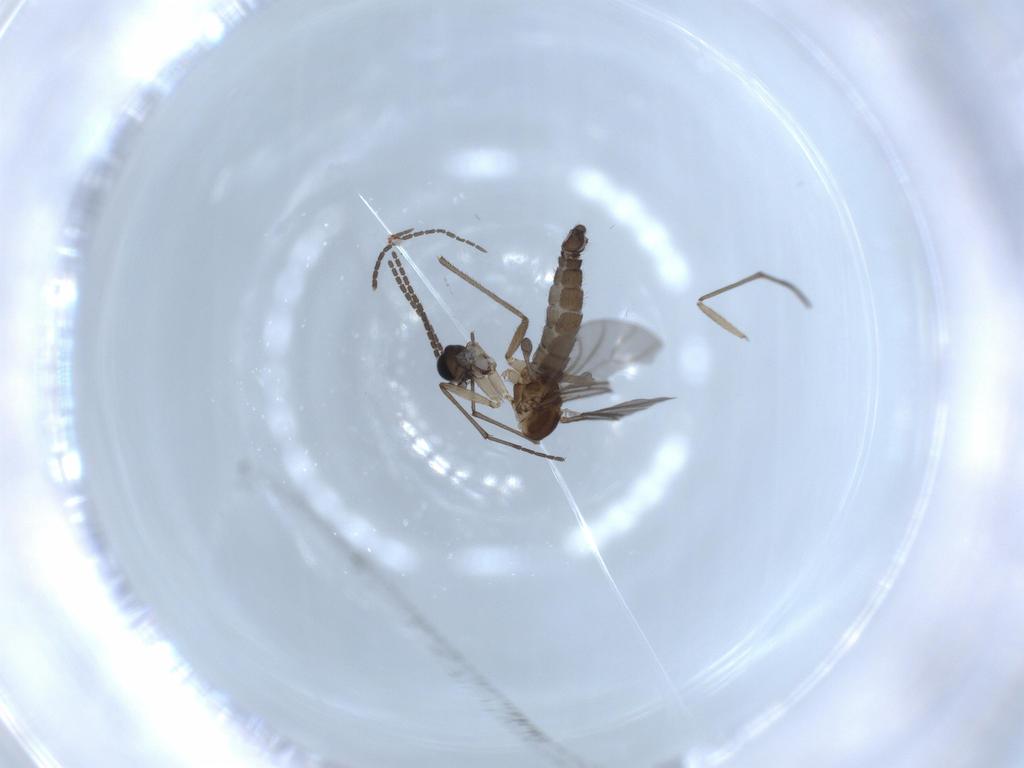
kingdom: Animalia
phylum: Arthropoda
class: Insecta
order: Diptera
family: Sciaridae
